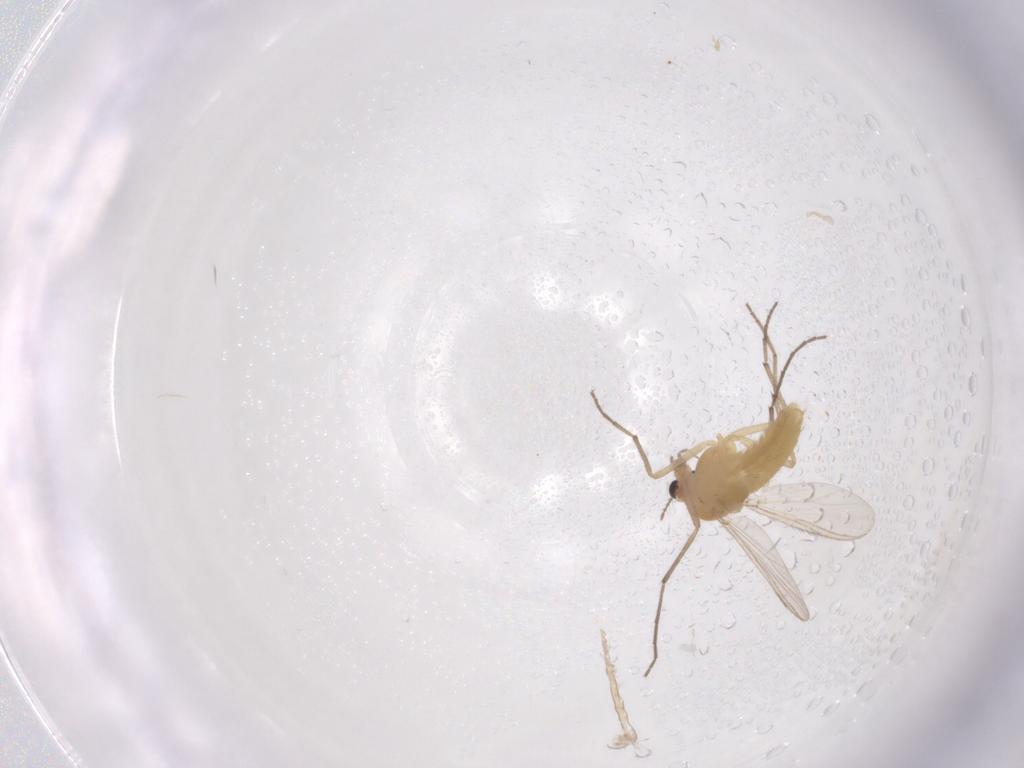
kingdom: Animalia
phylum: Arthropoda
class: Insecta
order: Diptera
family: Chironomidae
